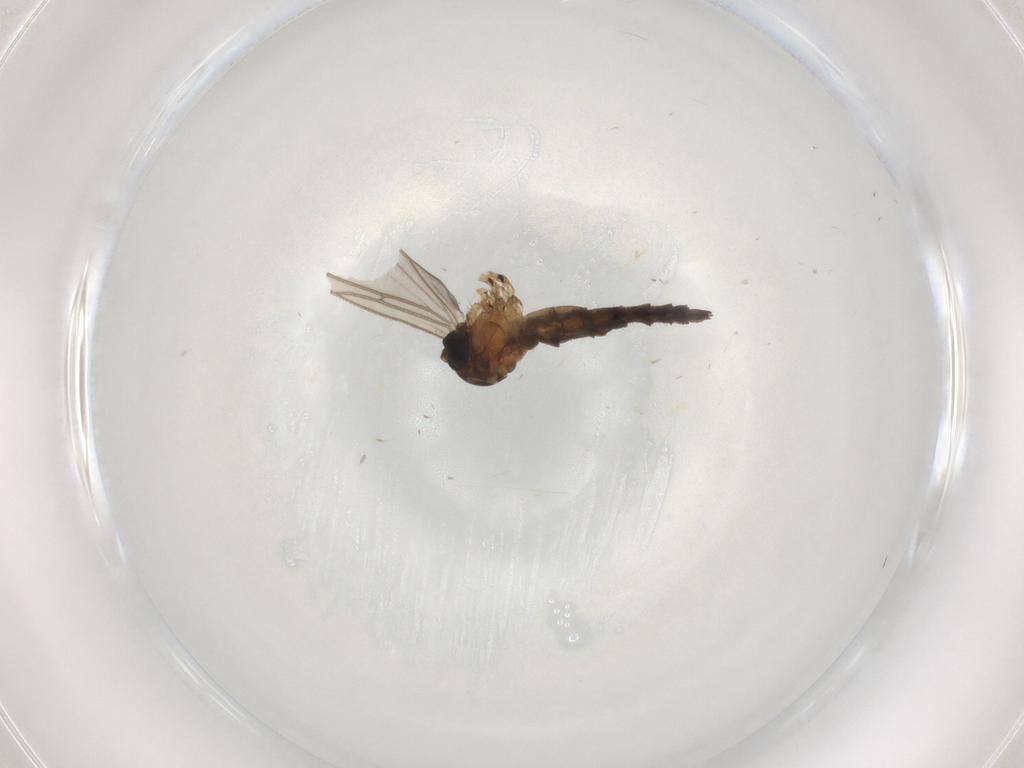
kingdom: Animalia
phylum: Arthropoda
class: Insecta
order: Diptera
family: Sciaridae
